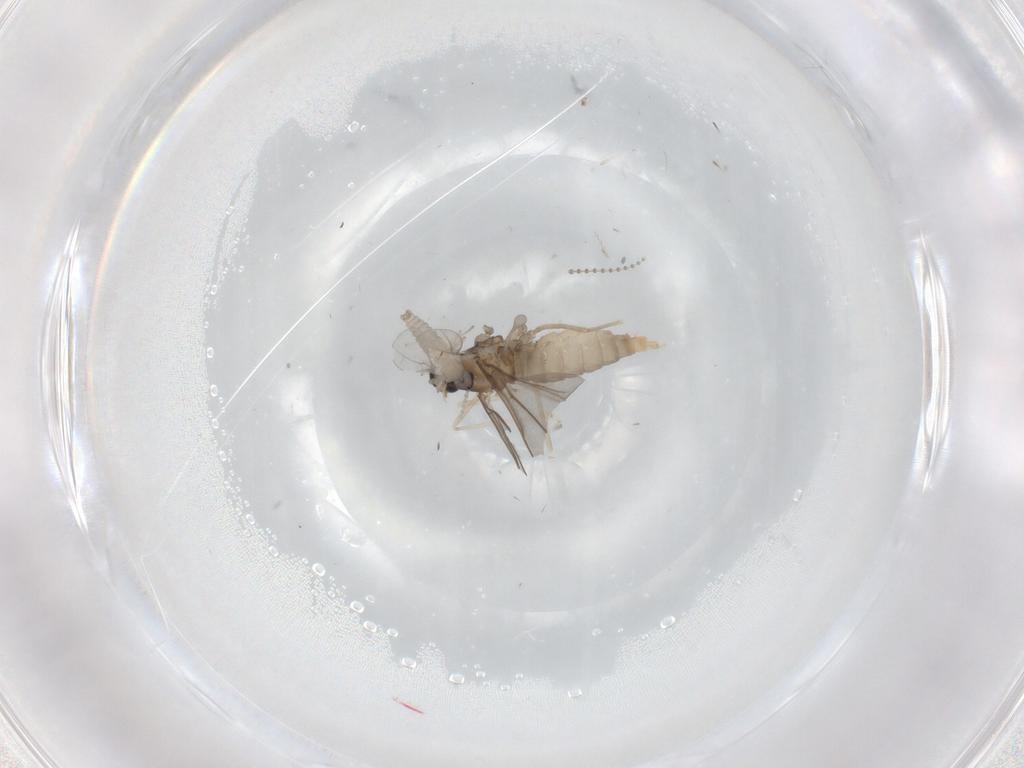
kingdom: Animalia
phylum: Arthropoda
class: Insecta
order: Diptera
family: Cecidomyiidae
